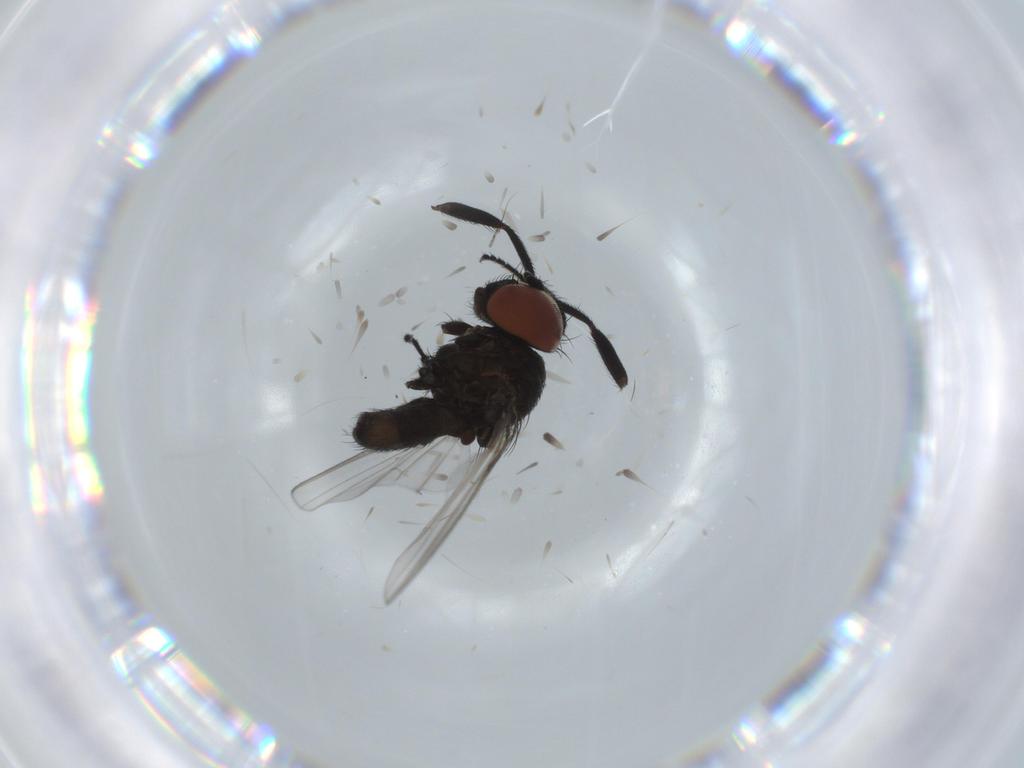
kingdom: Animalia
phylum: Arthropoda
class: Insecta
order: Diptera
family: Milichiidae
